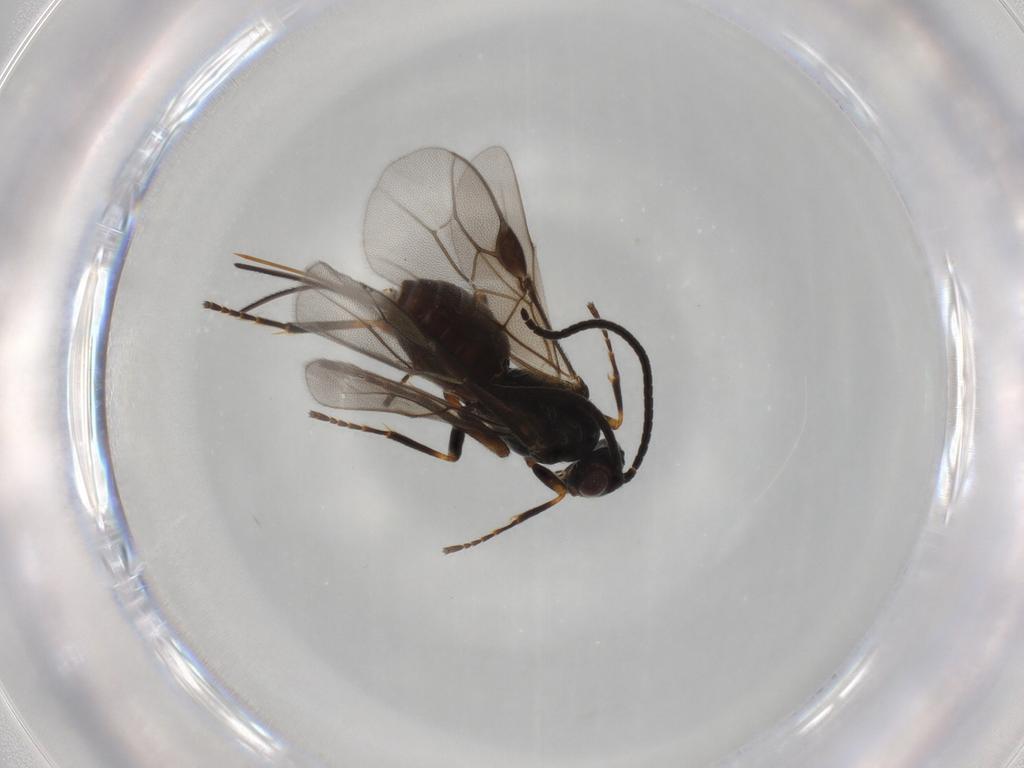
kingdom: Animalia
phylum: Arthropoda
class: Insecta
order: Hymenoptera
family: Braconidae
